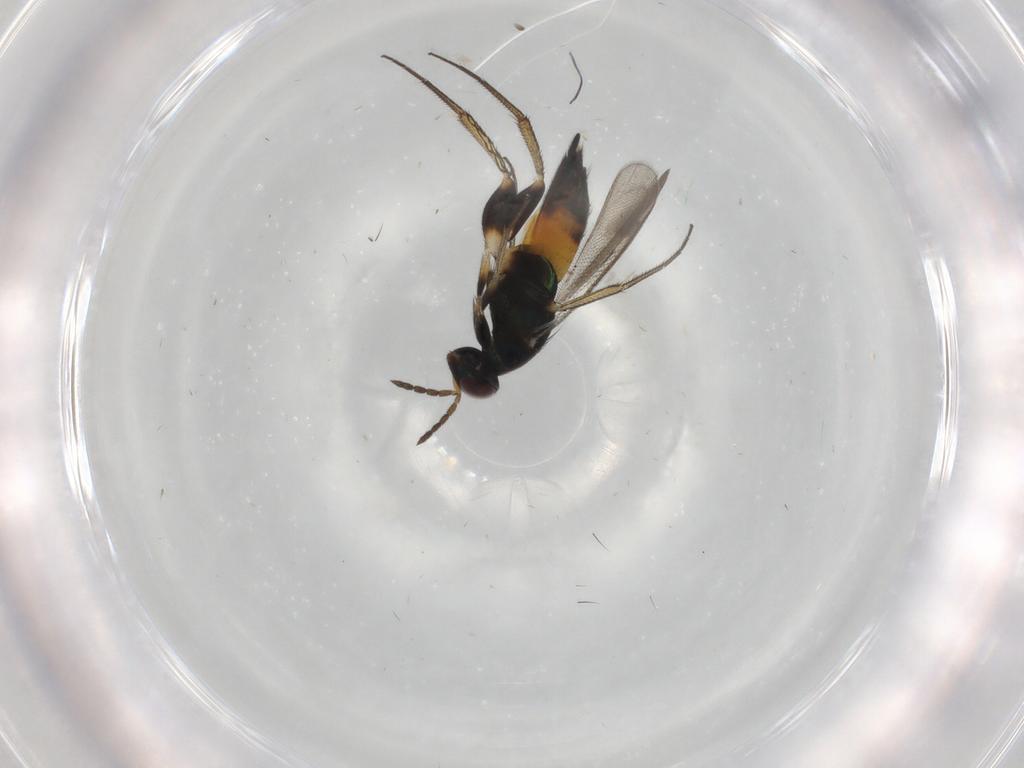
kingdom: Animalia
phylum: Arthropoda
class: Insecta
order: Hymenoptera
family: Eulophidae
